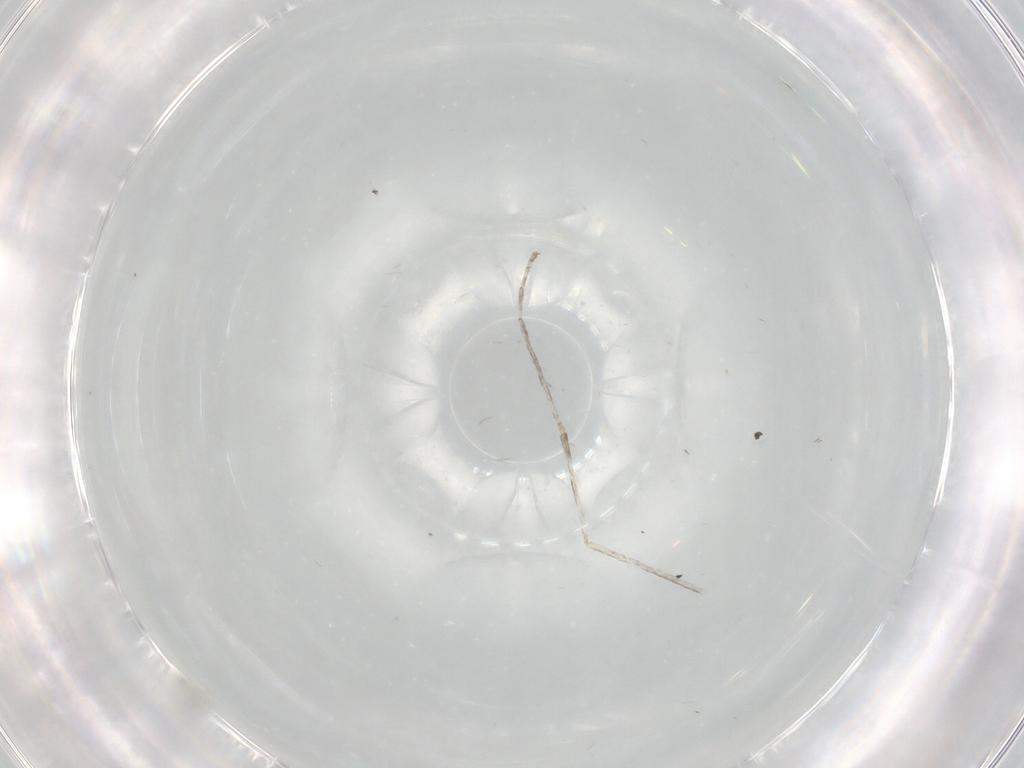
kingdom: Animalia
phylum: Arthropoda
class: Insecta
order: Diptera
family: Cecidomyiidae
